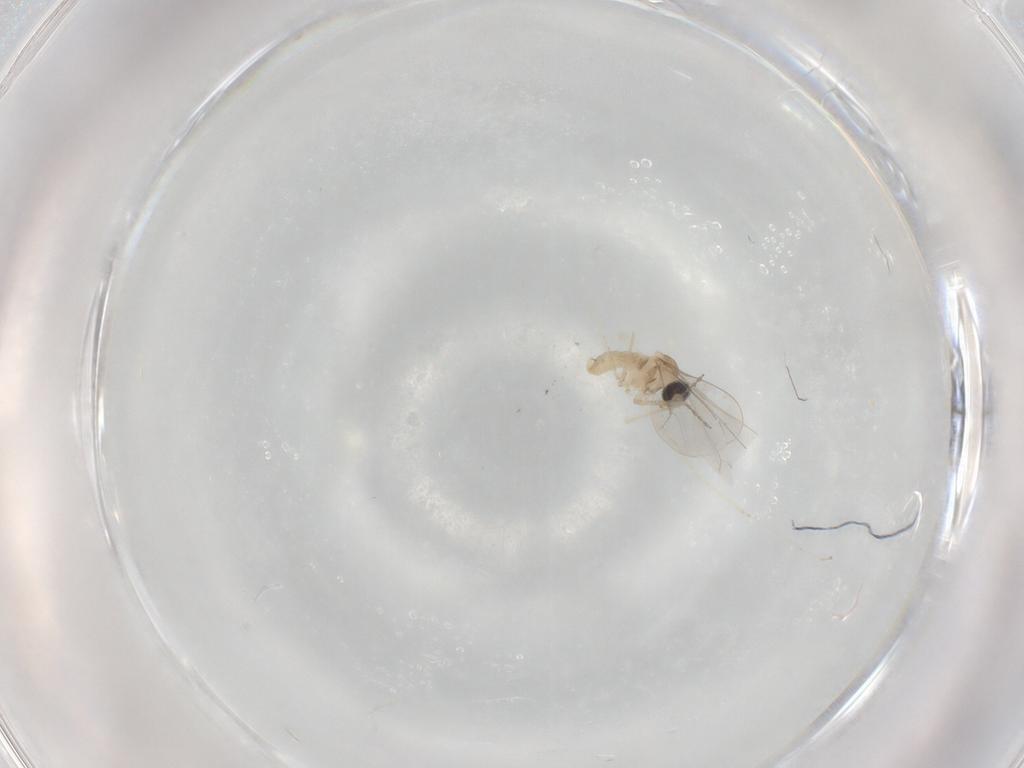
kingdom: Animalia
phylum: Arthropoda
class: Insecta
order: Diptera
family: Cecidomyiidae
